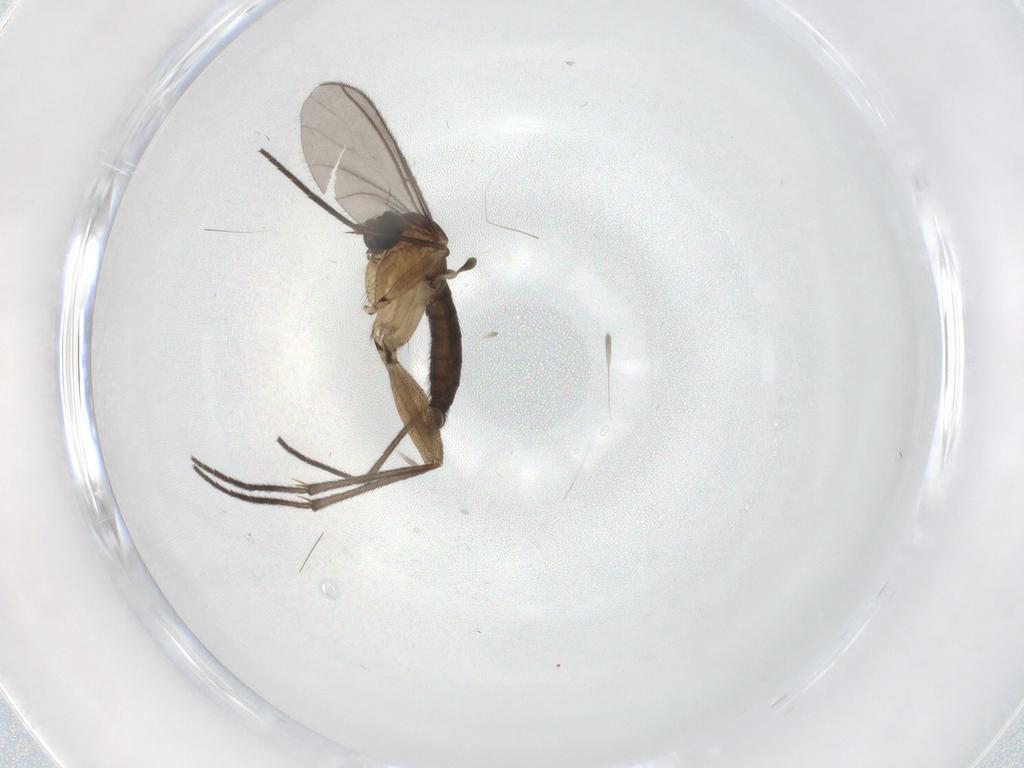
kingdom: Animalia
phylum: Arthropoda
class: Insecta
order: Diptera
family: Sciaridae
